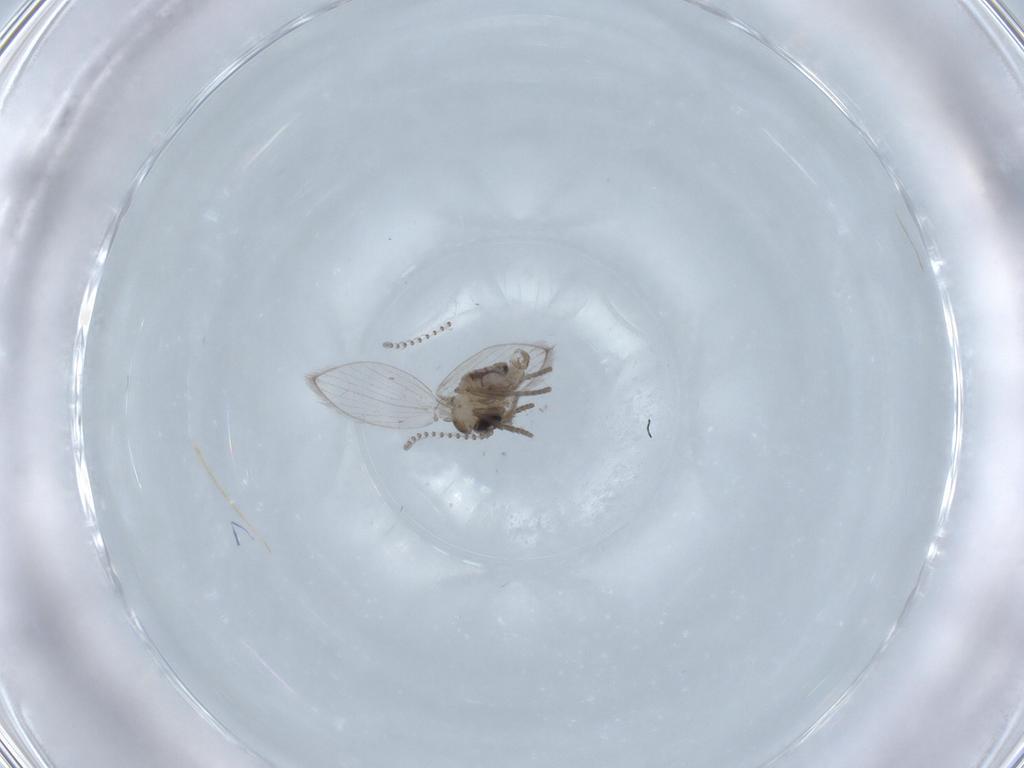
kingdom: Animalia
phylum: Arthropoda
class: Insecta
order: Diptera
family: Psychodidae
